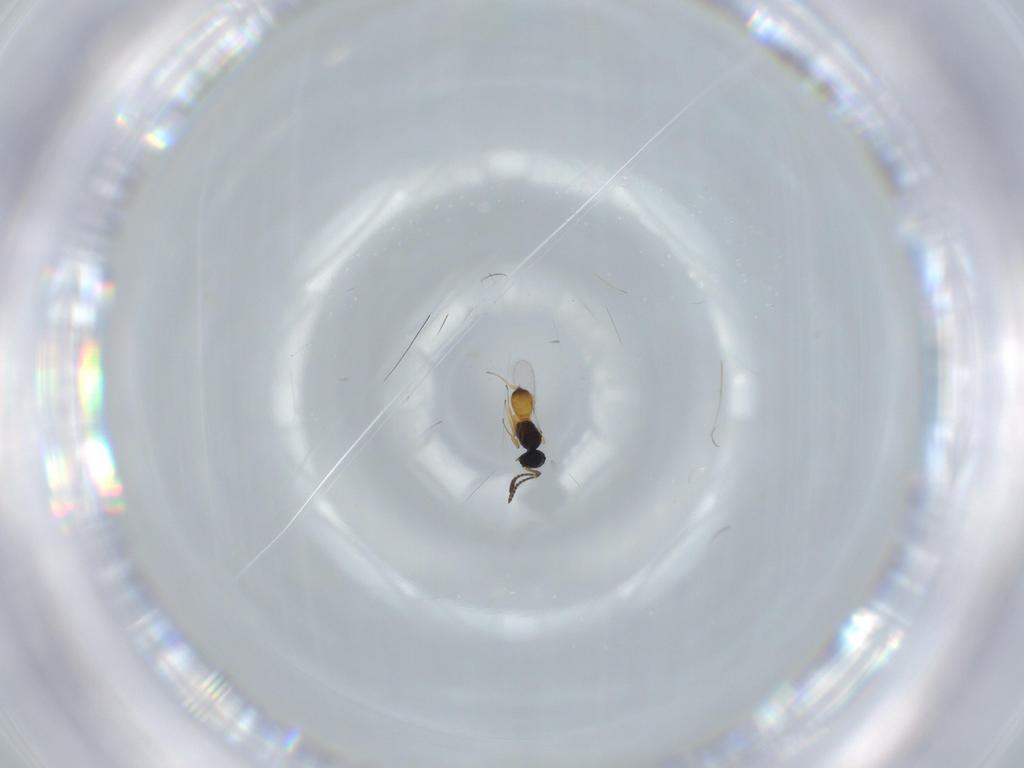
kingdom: Animalia
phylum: Arthropoda
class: Insecta
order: Hymenoptera
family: Scelionidae
